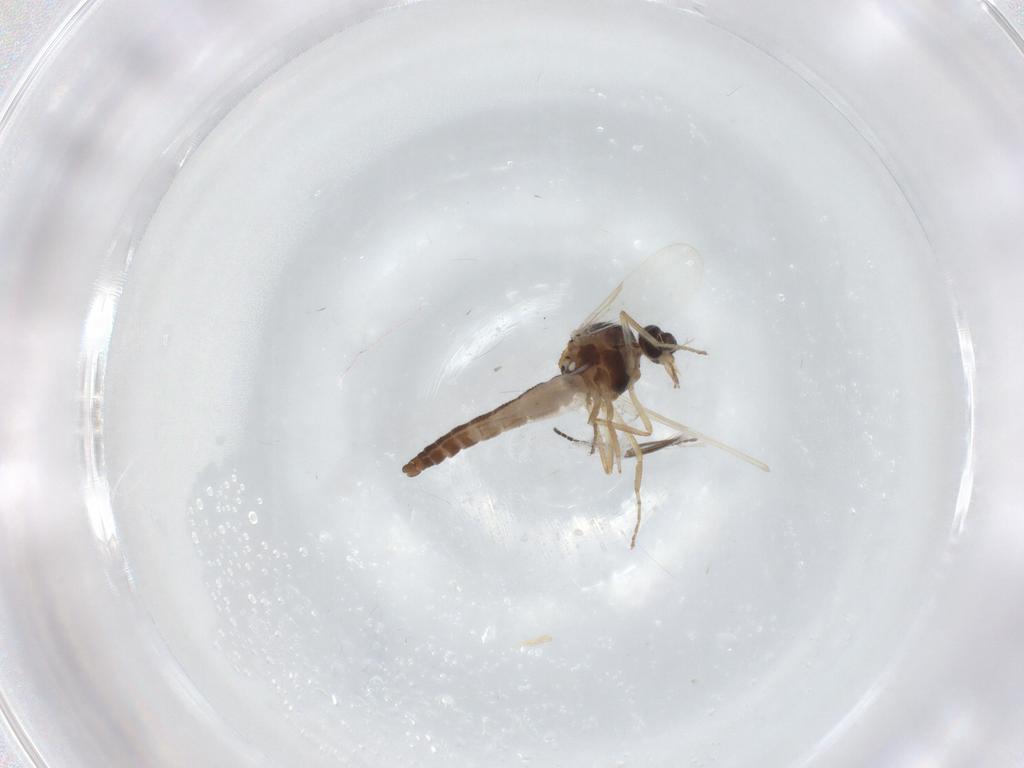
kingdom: Animalia
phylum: Arthropoda
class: Insecta
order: Diptera
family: Ceratopogonidae
